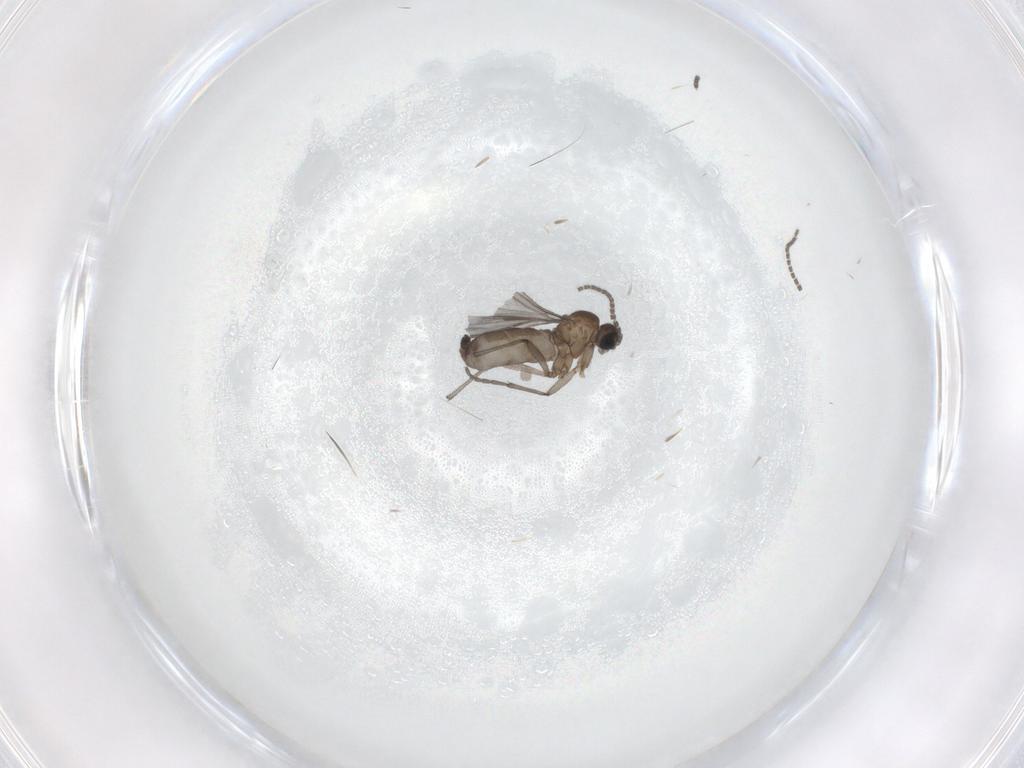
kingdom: Animalia
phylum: Arthropoda
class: Insecta
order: Diptera
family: Sciaridae
